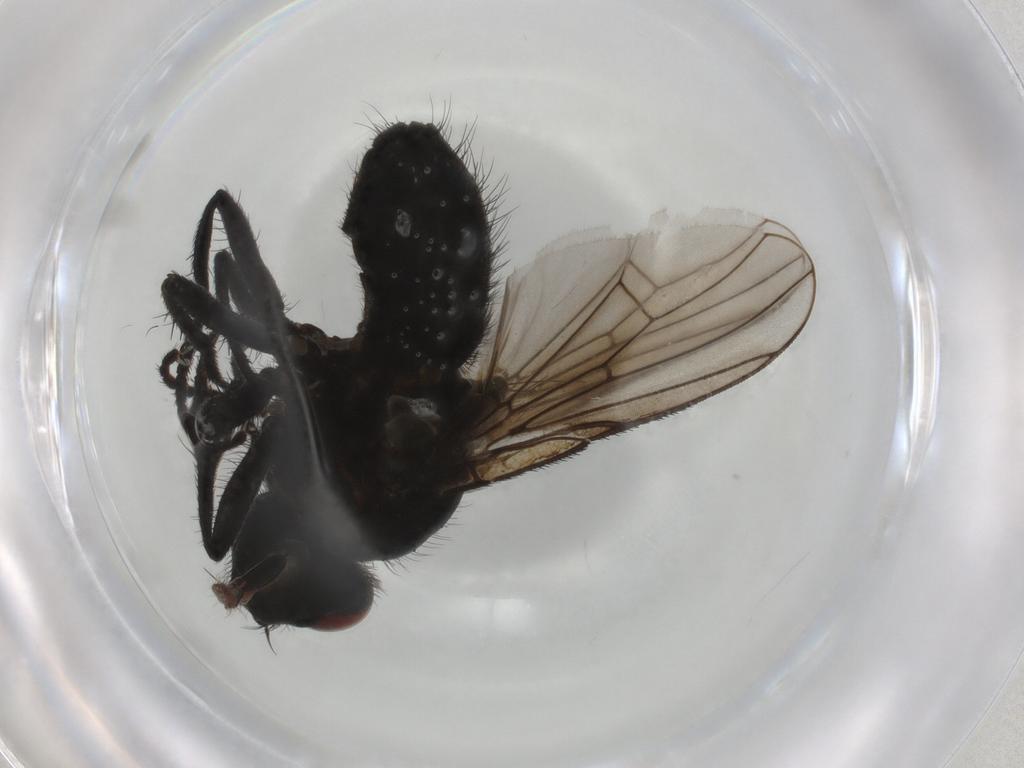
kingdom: Animalia
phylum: Arthropoda
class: Insecta
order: Diptera
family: Muscidae
